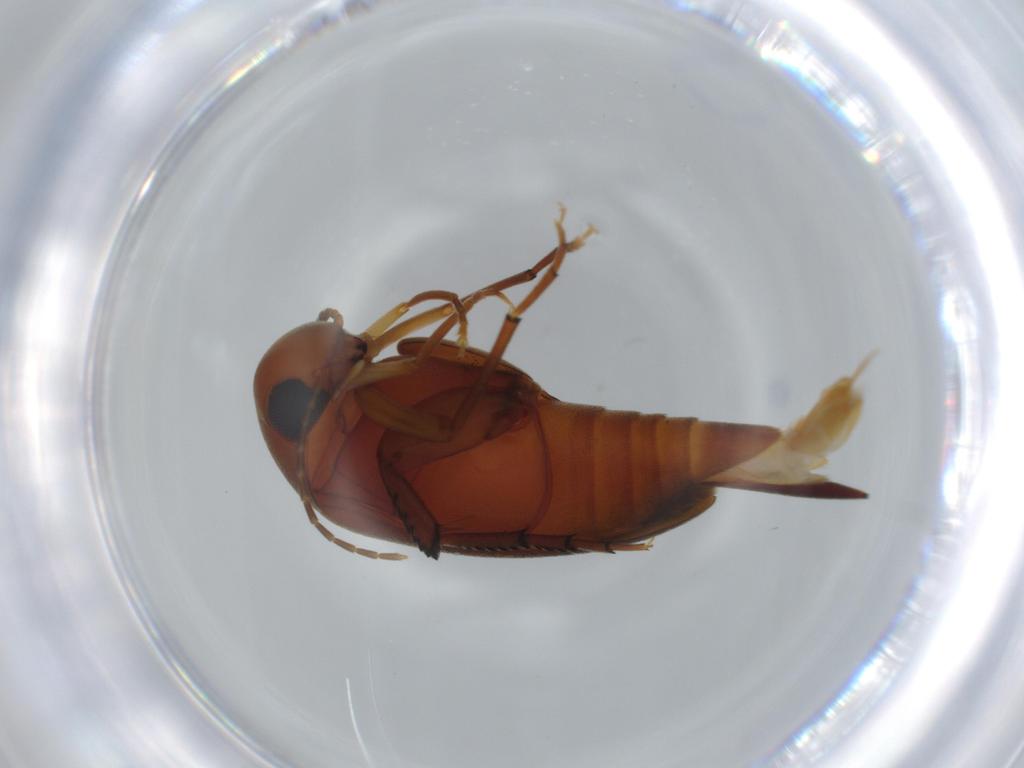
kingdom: Animalia
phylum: Arthropoda
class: Insecta
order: Coleoptera
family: Mordellidae
